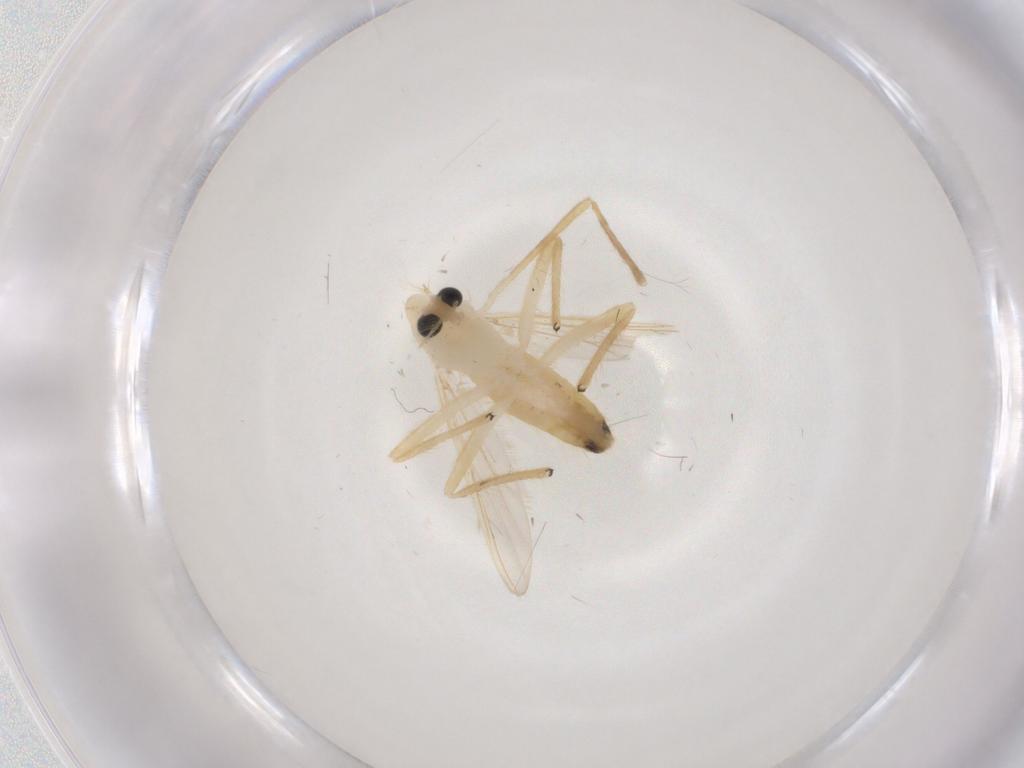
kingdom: Animalia
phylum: Arthropoda
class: Insecta
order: Diptera
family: Chironomidae
